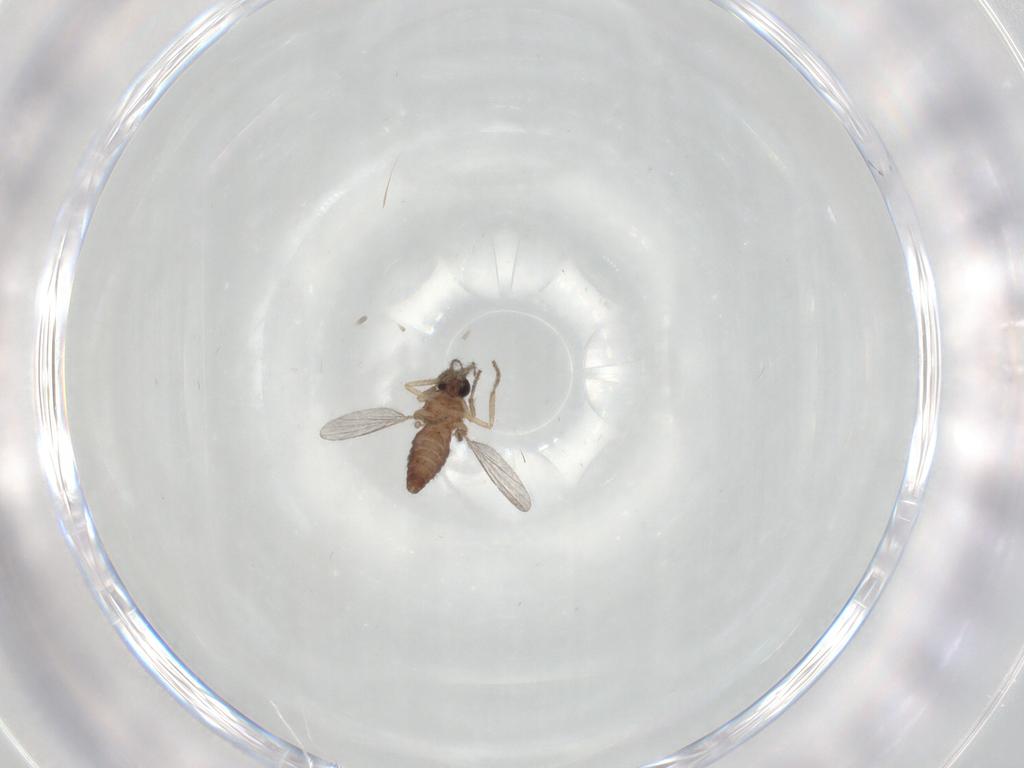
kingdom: Animalia
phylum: Arthropoda
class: Insecta
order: Diptera
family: Ceratopogonidae
